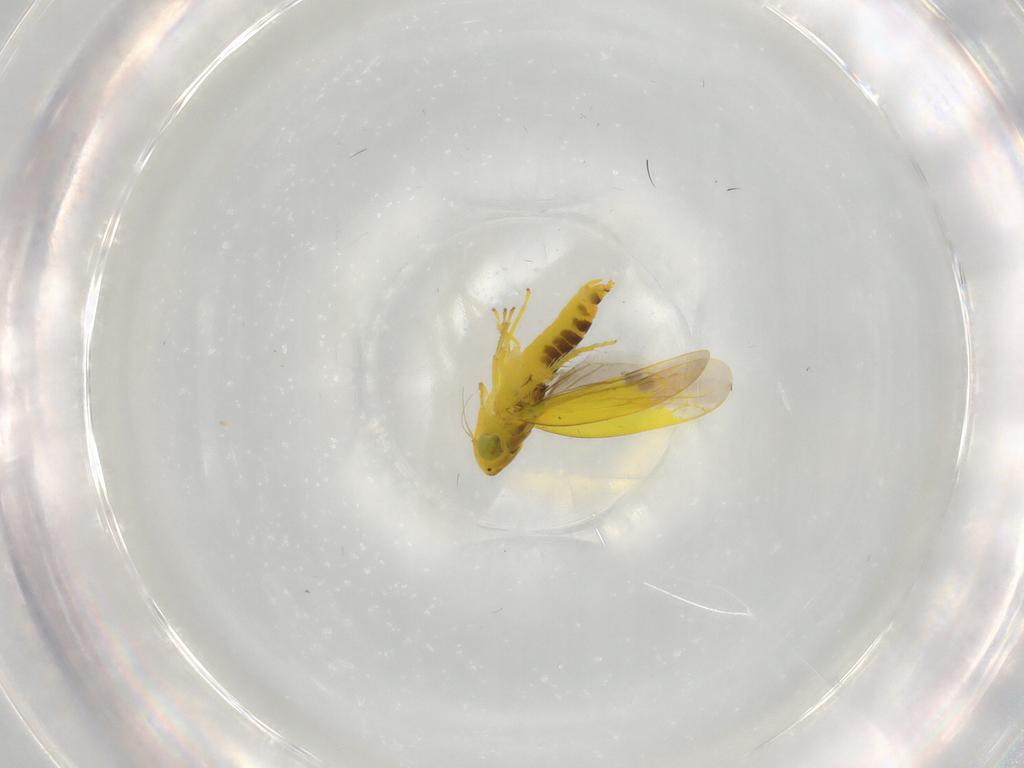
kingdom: Animalia
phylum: Arthropoda
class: Insecta
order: Hemiptera
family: Cicadellidae
